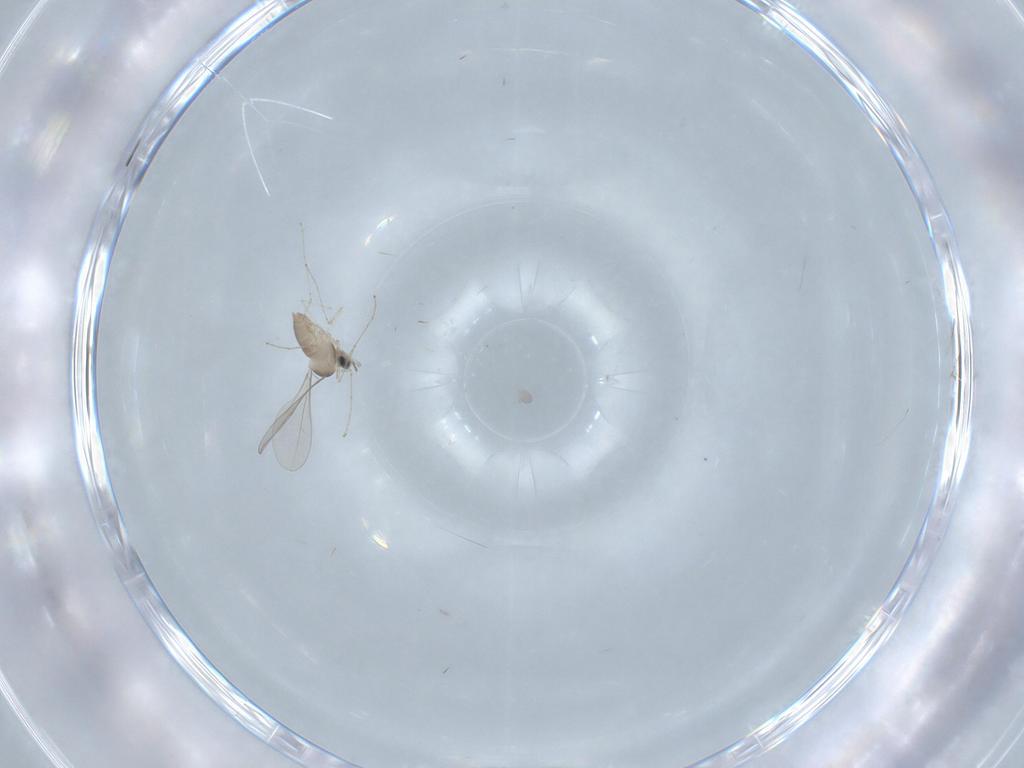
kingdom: Animalia
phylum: Arthropoda
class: Insecta
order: Diptera
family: Cecidomyiidae
